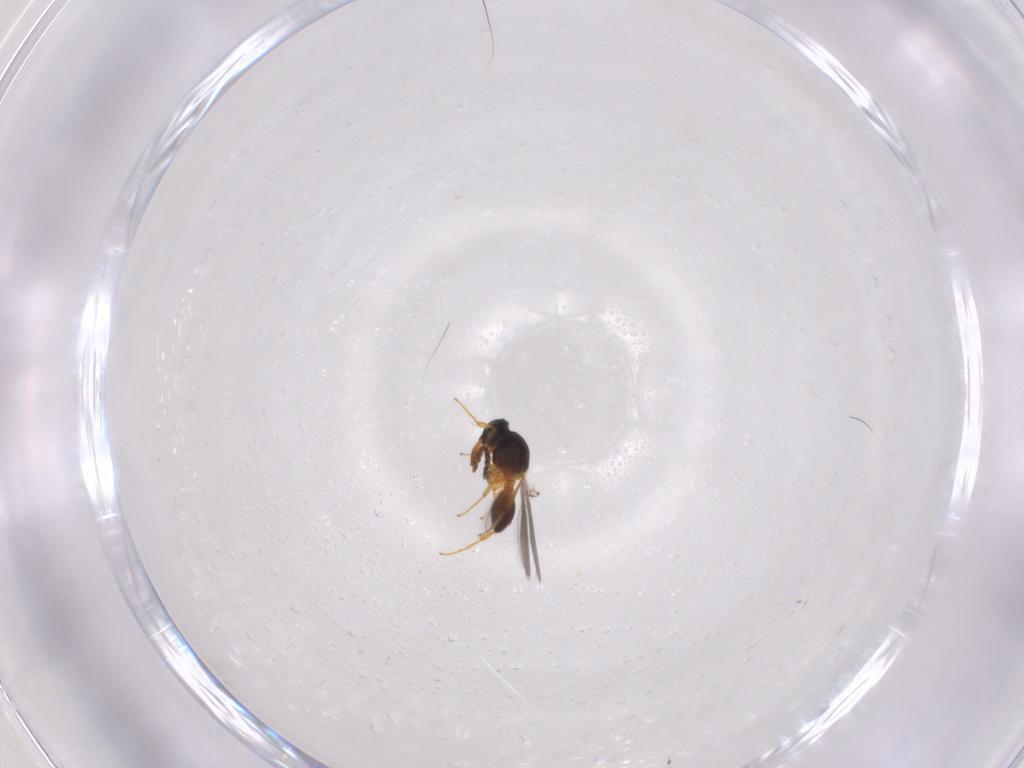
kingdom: Animalia
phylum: Arthropoda
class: Insecta
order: Hymenoptera
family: Platygastridae
